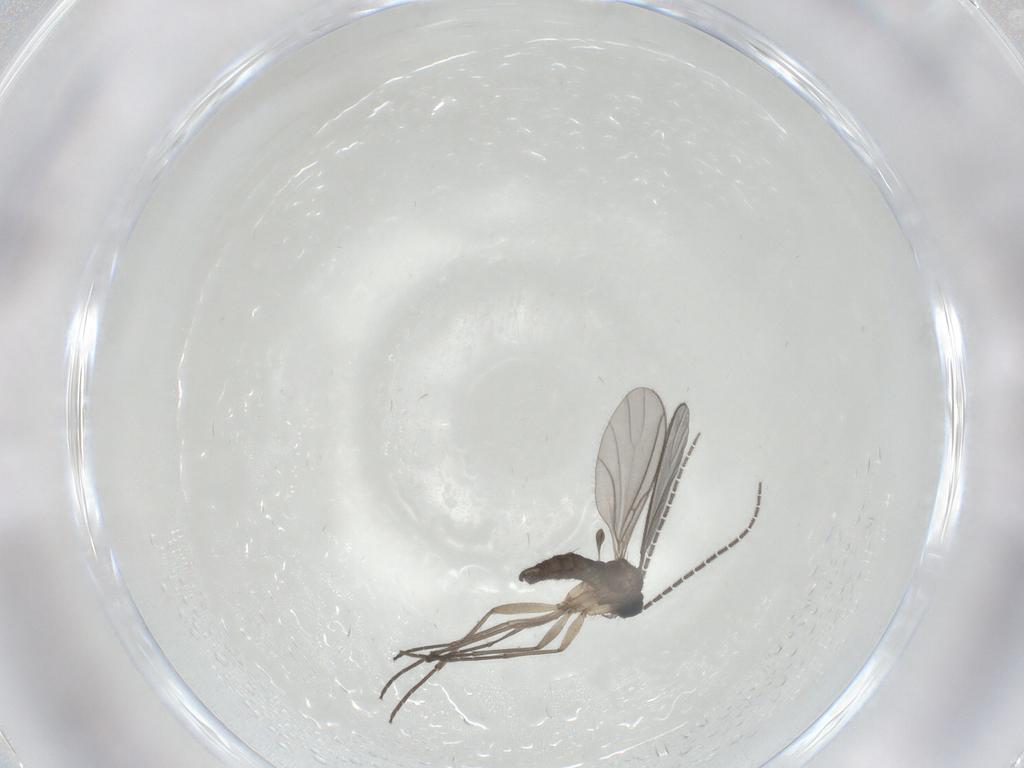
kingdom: Animalia
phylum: Arthropoda
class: Insecta
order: Diptera
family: Sciaridae
